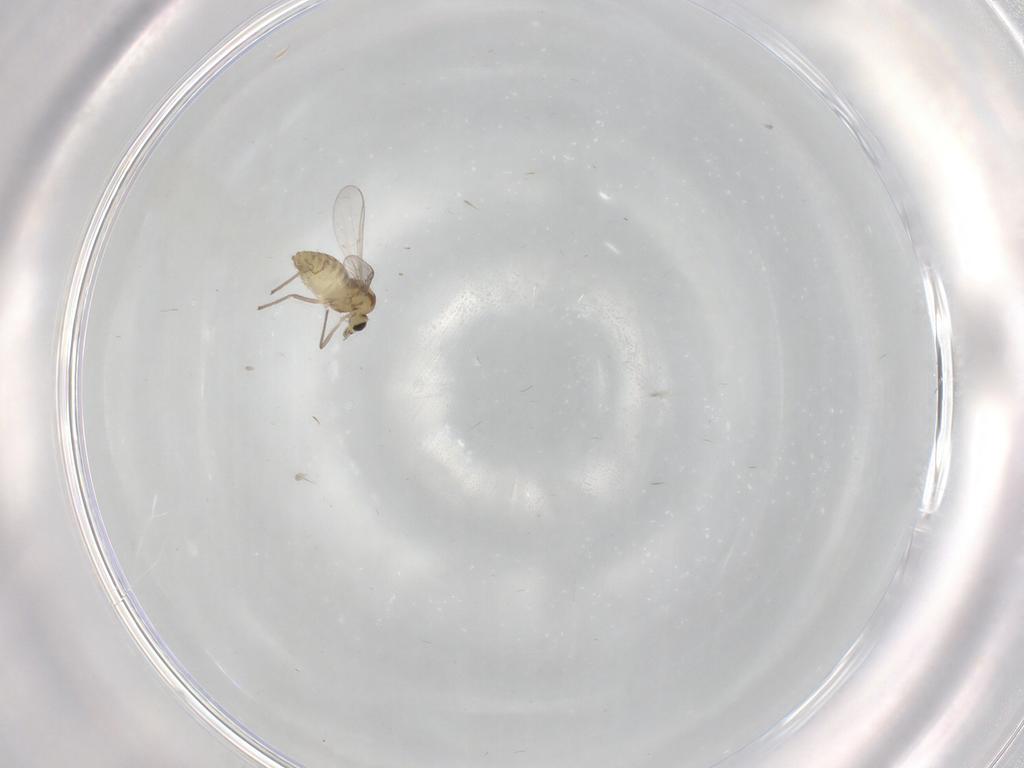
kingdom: Animalia
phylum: Arthropoda
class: Insecta
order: Diptera
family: Chironomidae
